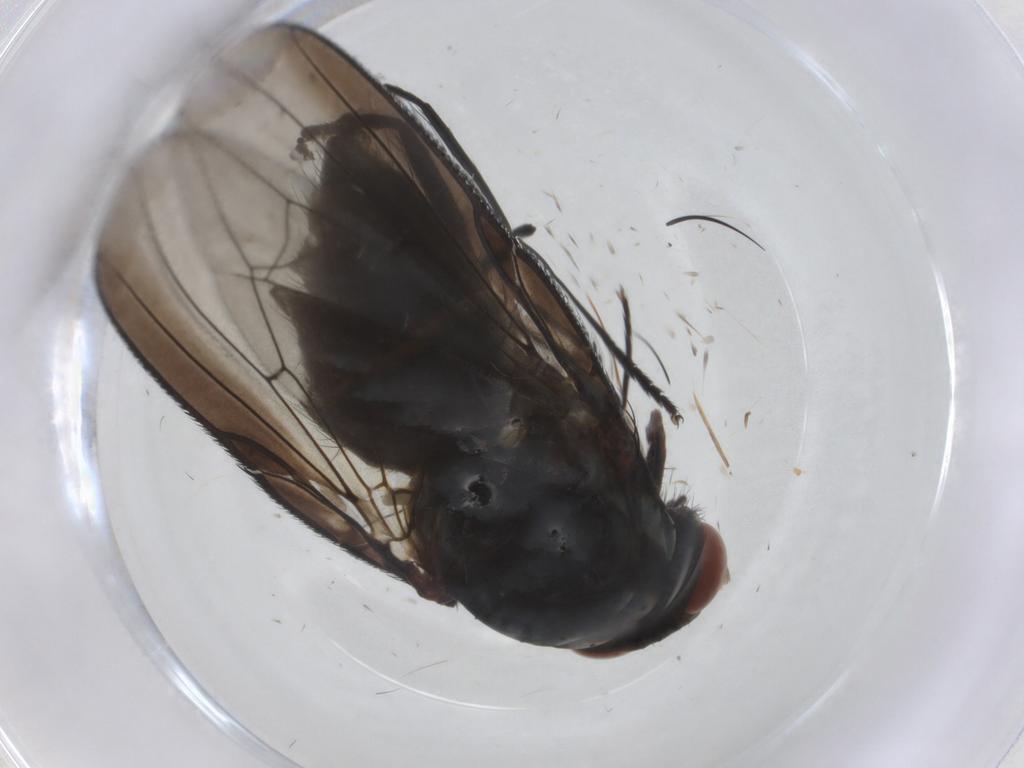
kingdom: Animalia
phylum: Arthropoda
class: Insecta
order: Diptera
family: Anthomyiidae
